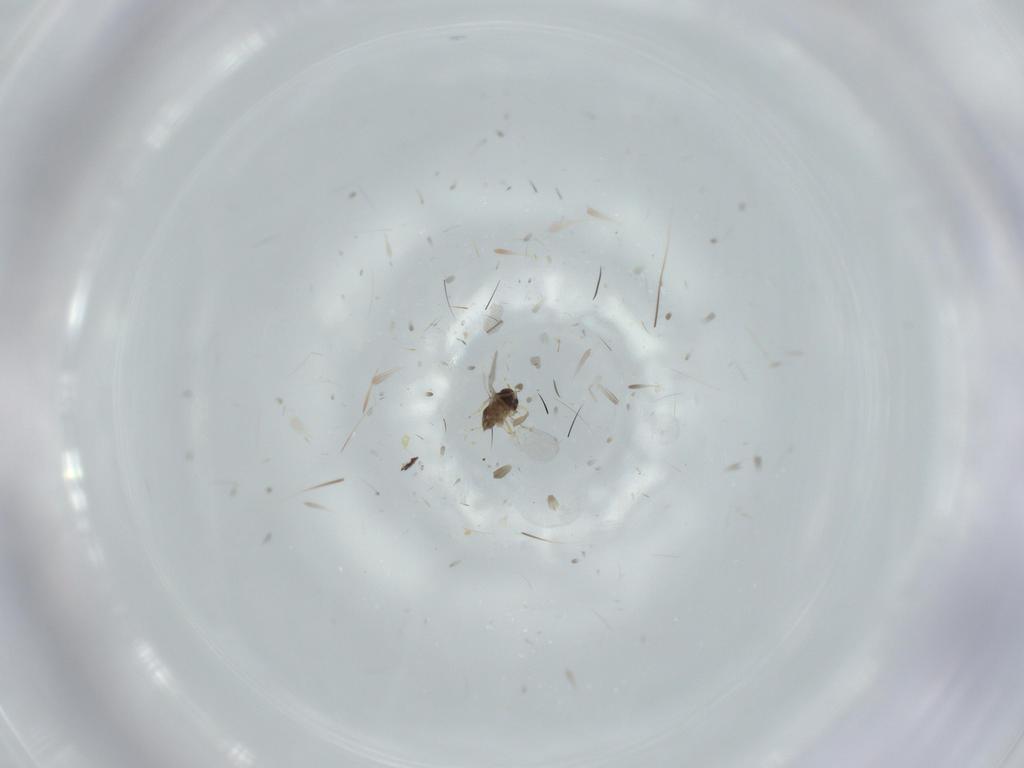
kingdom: Animalia
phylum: Arthropoda
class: Insecta
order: Hymenoptera
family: Encyrtidae
